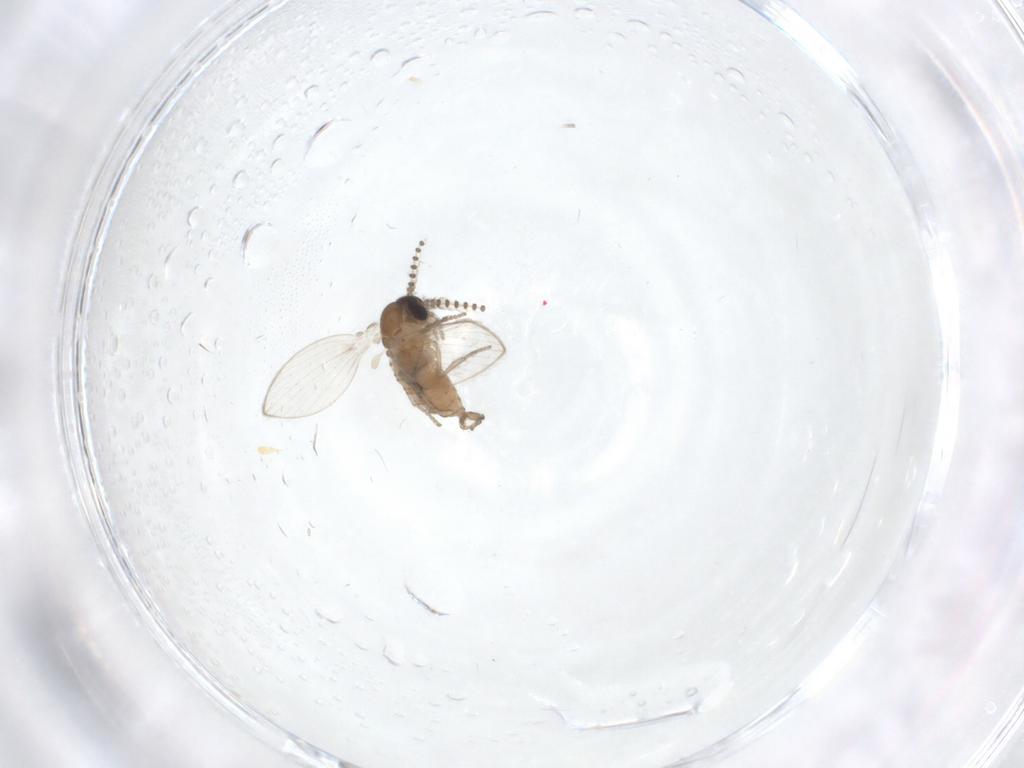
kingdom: Animalia
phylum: Arthropoda
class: Insecta
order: Diptera
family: Psychodidae
